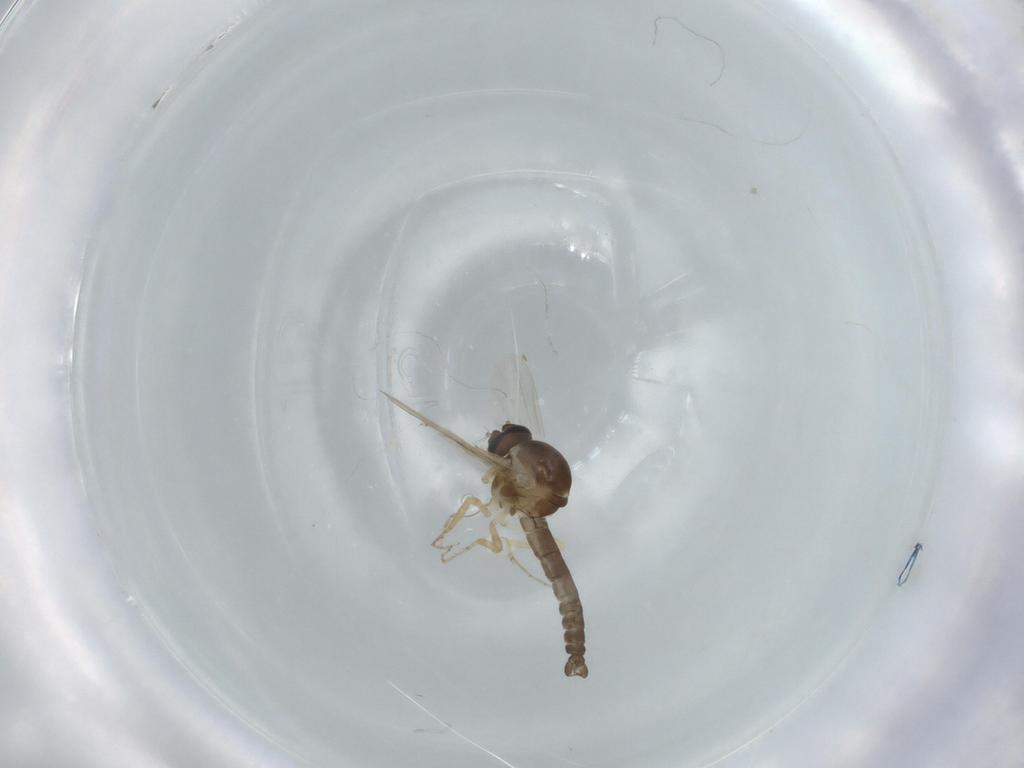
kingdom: Animalia
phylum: Arthropoda
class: Insecta
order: Diptera
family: Ceratopogonidae
